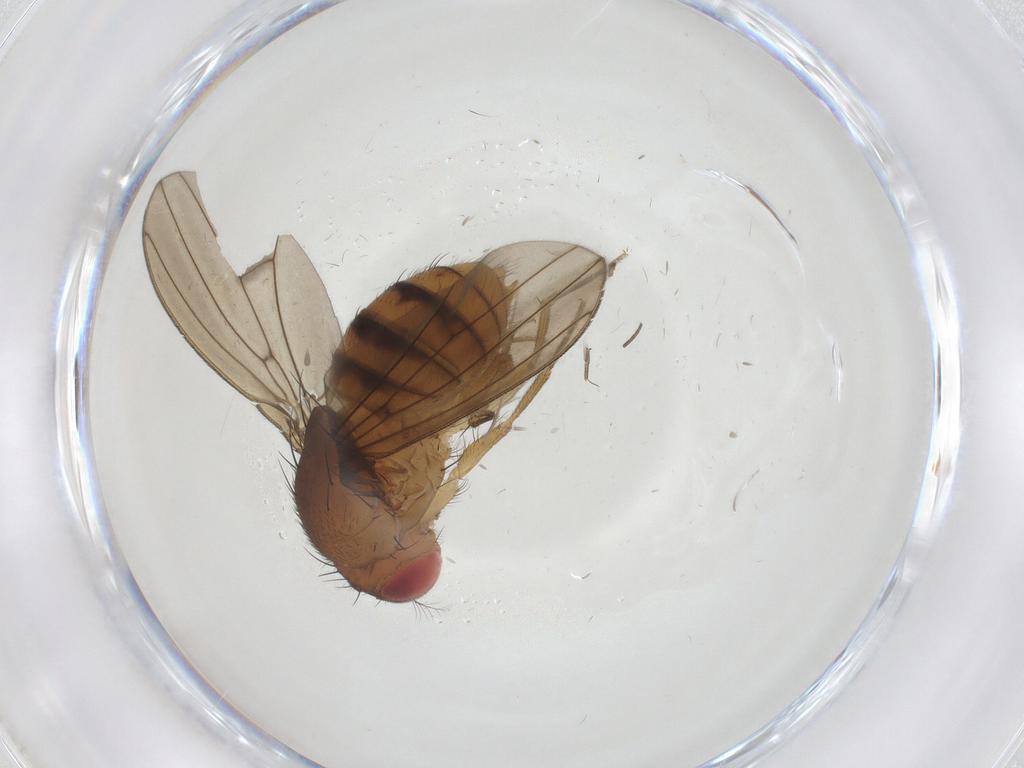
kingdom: Animalia
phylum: Arthropoda
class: Insecta
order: Diptera
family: Drosophilidae
